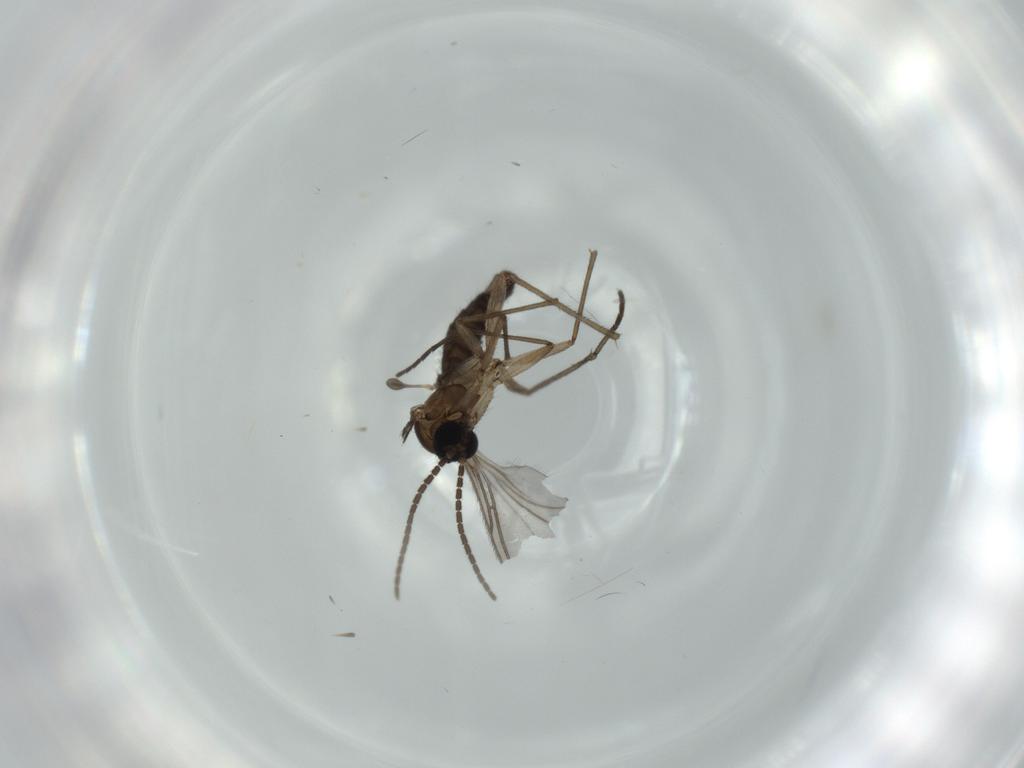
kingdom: Animalia
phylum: Arthropoda
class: Insecta
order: Diptera
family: Sciaridae
